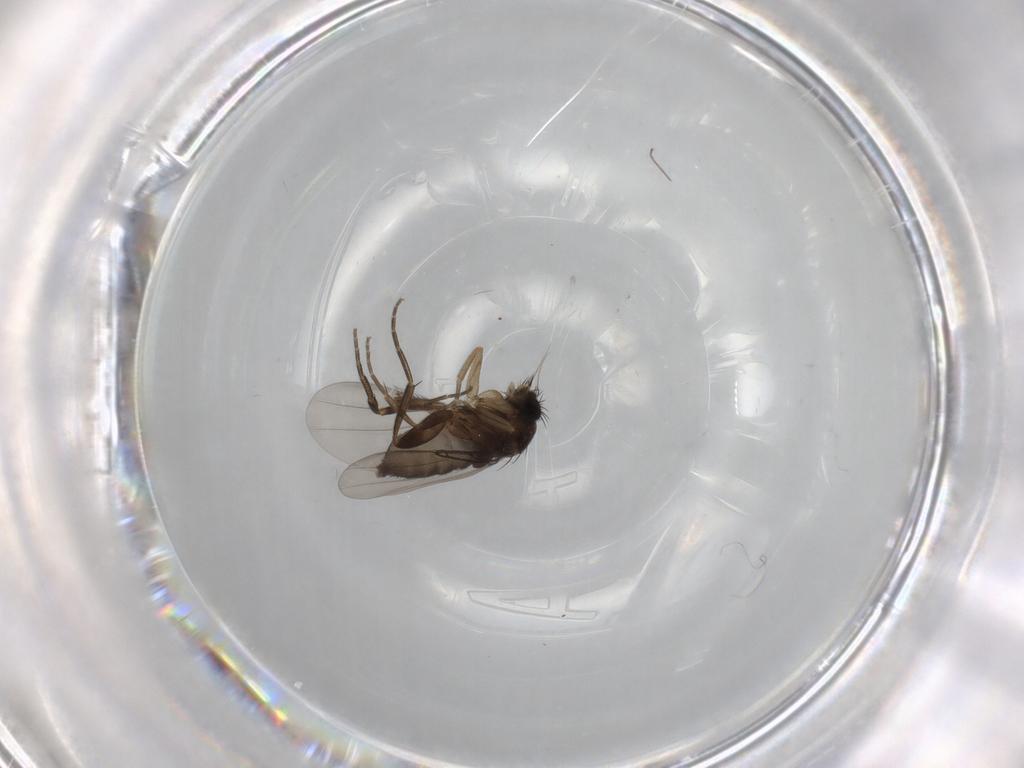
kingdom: Animalia
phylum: Arthropoda
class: Insecta
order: Diptera
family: Phoridae
